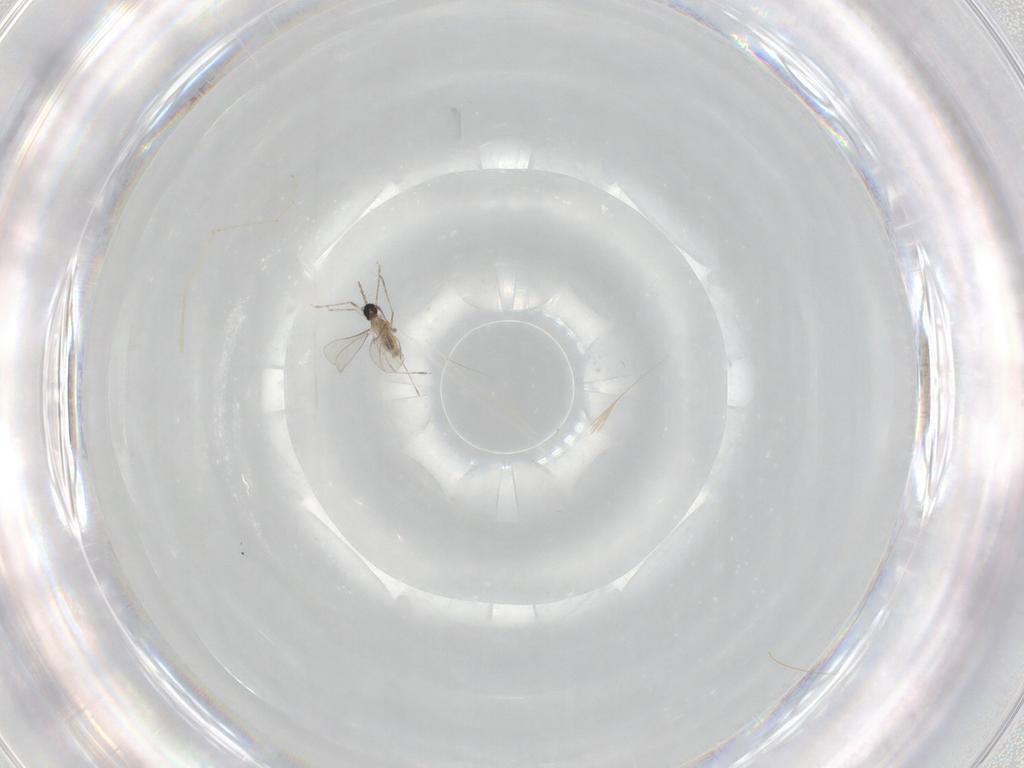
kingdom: Animalia
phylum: Arthropoda
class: Insecta
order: Diptera
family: Cecidomyiidae
